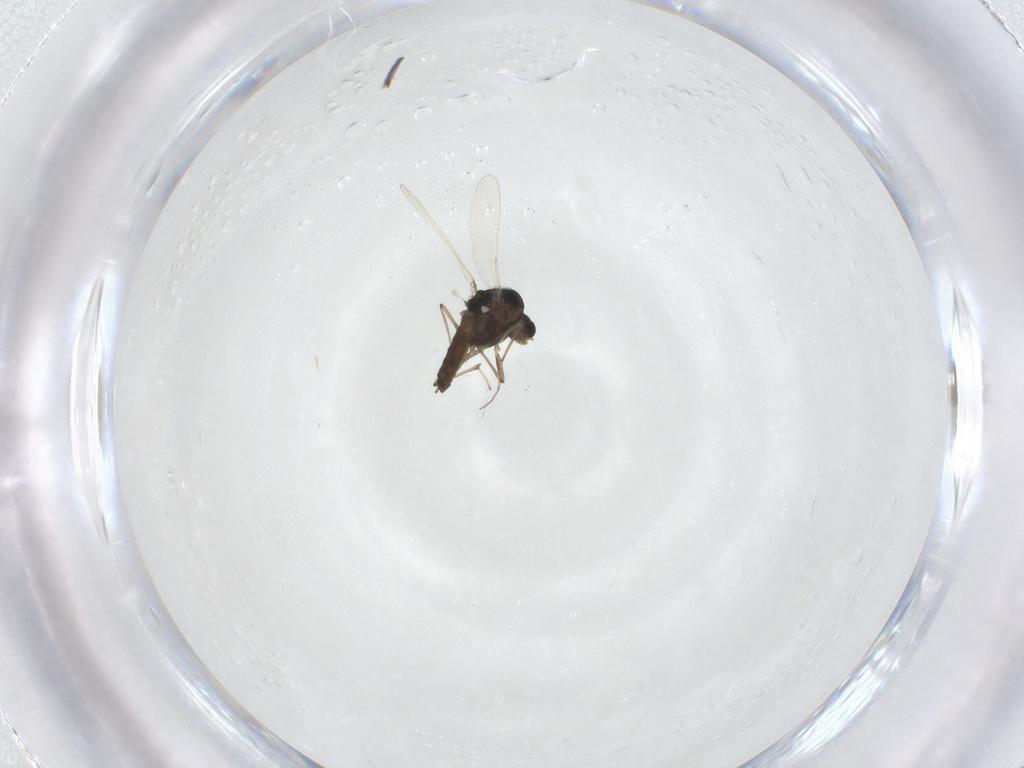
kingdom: Animalia
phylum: Arthropoda
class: Insecta
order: Diptera
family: Chironomidae
